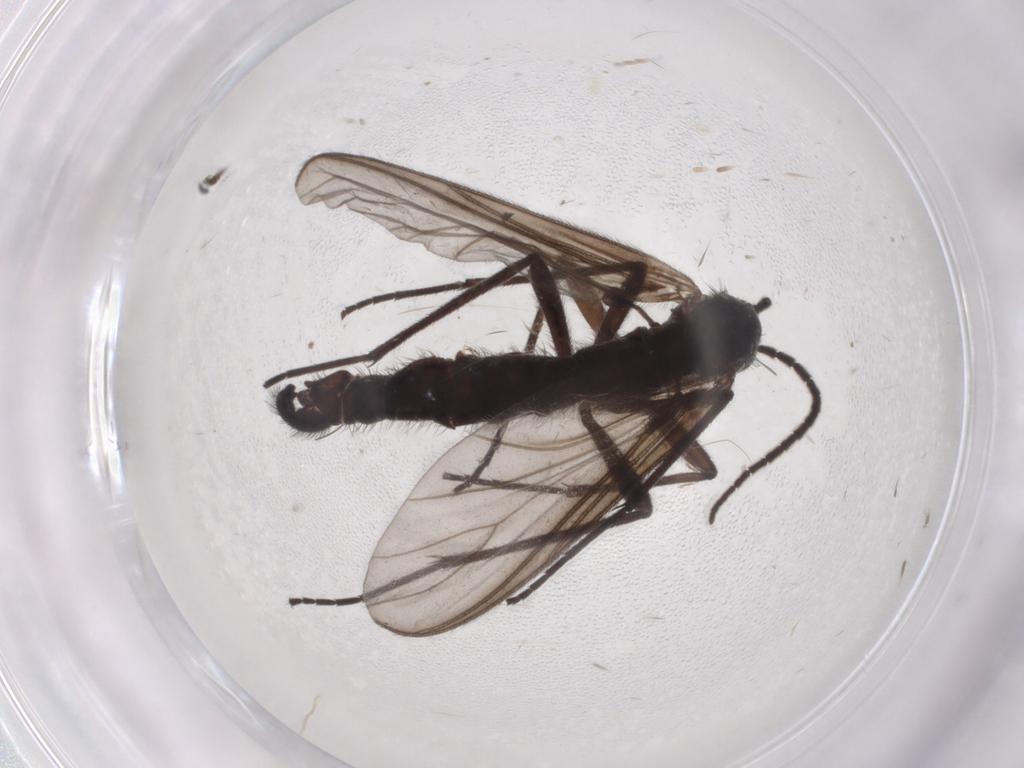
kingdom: Animalia
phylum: Arthropoda
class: Insecta
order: Diptera
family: Phoridae
